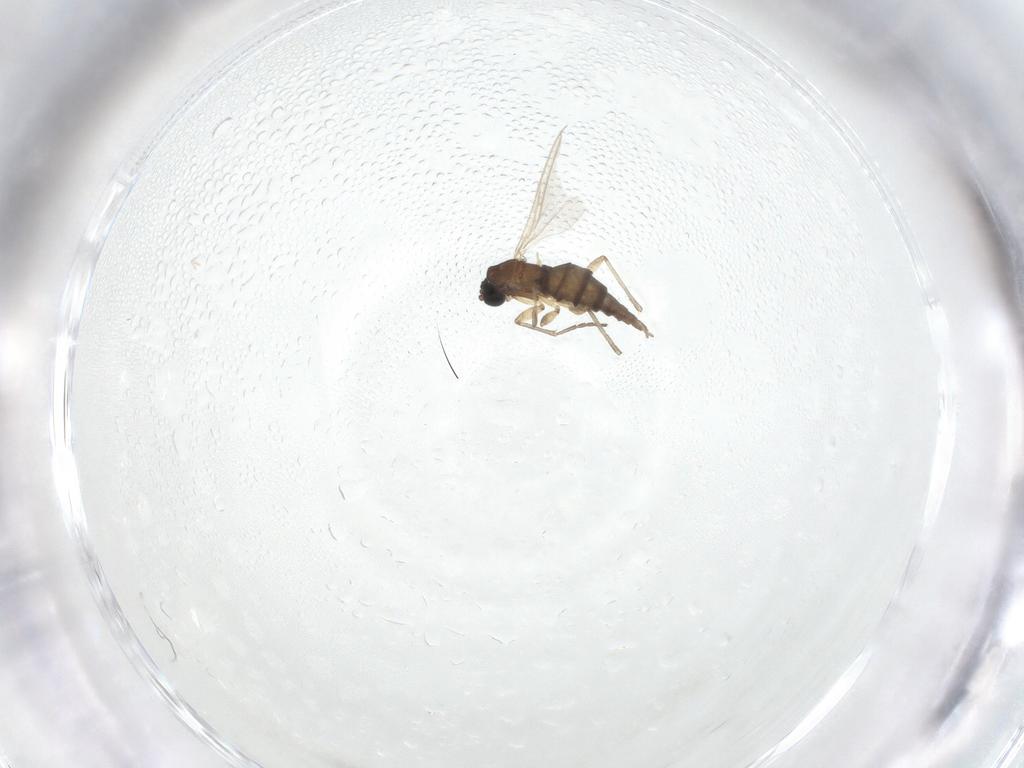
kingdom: Animalia
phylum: Arthropoda
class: Insecta
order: Diptera
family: Sciaridae
